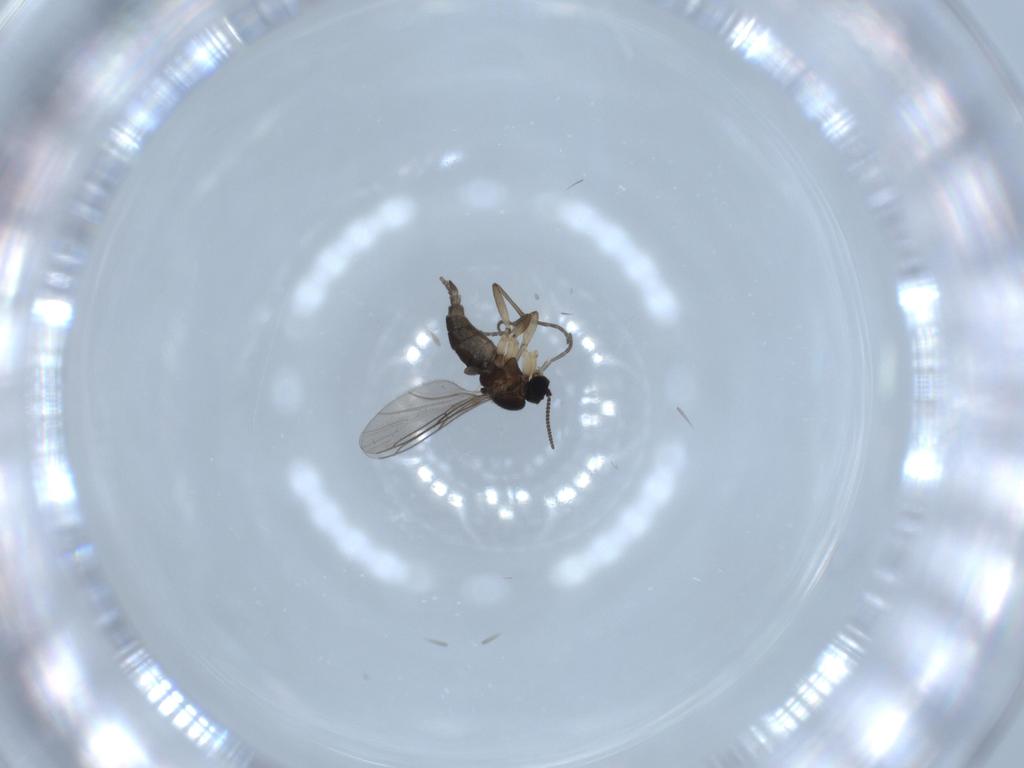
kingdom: Animalia
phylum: Arthropoda
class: Insecta
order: Diptera
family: Sciaridae
